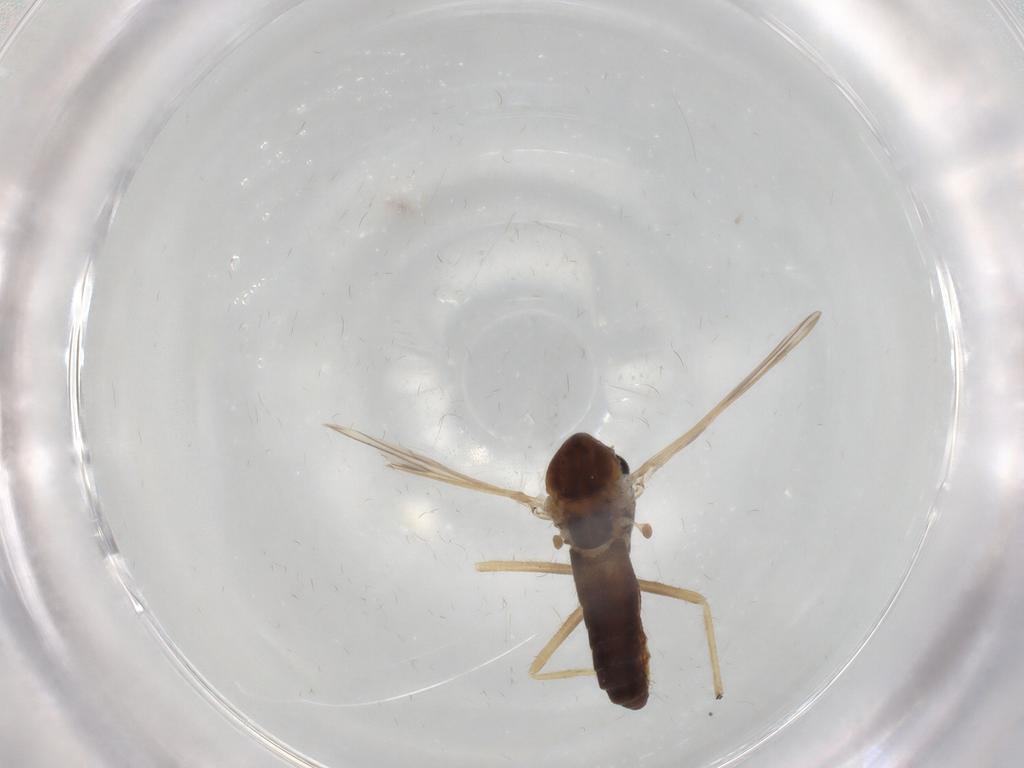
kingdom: Animalia
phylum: Arthropoda
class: Insecta
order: Diptera
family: Chironomidae
